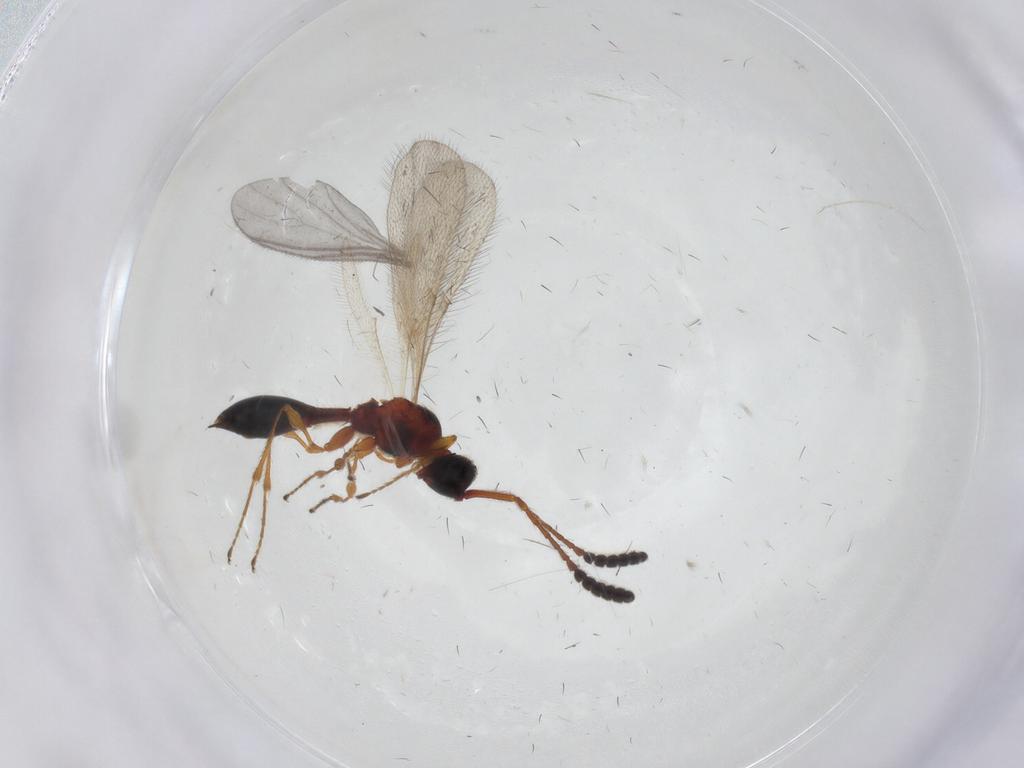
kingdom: Animalia
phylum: Arthropoda
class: Insecta
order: Hymenoptera
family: Diapriidae
